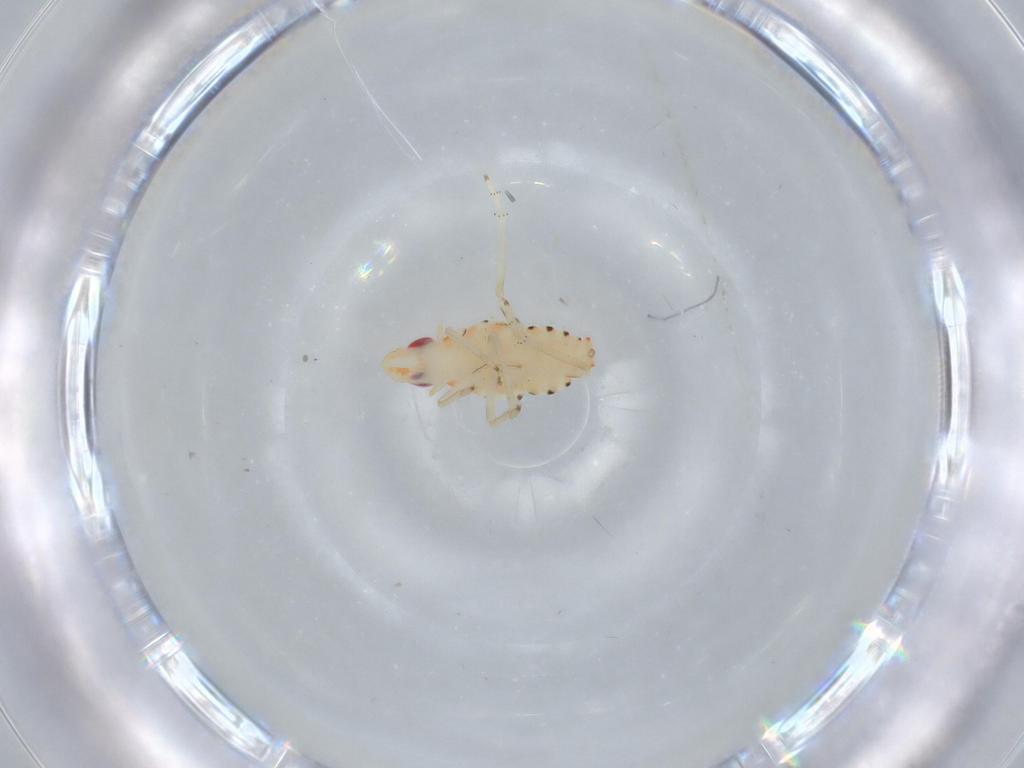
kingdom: Animalia
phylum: Arthropoda
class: Insecta
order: Hemiptera
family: Tropiduchidae
